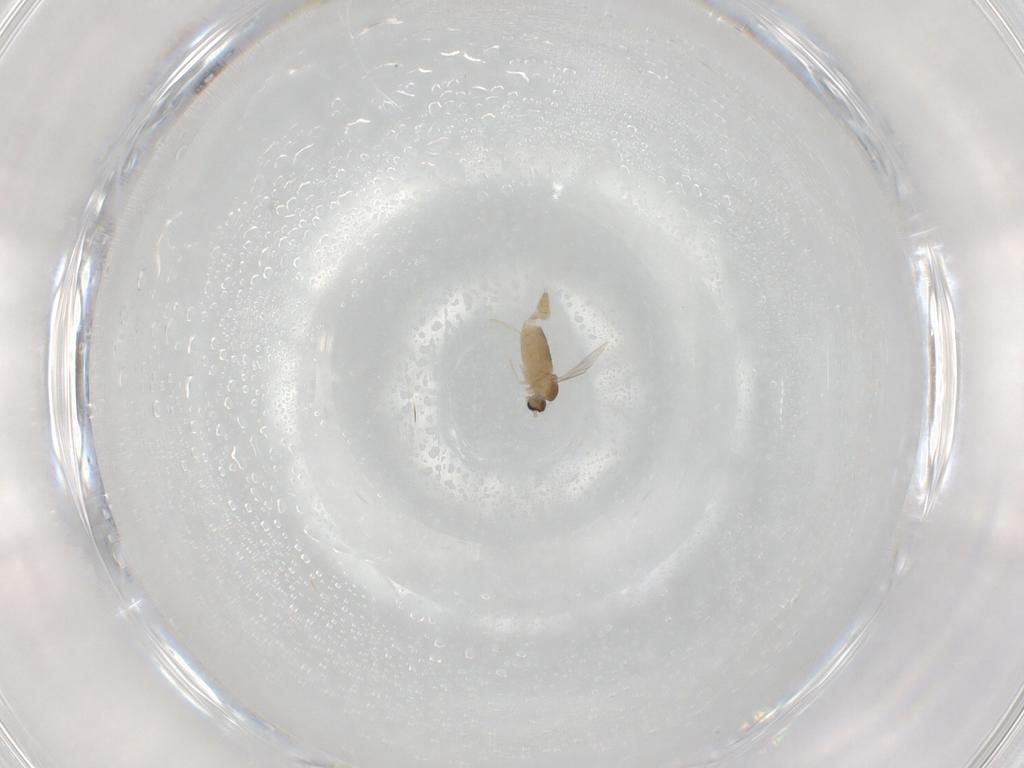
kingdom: Animalia
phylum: Arthropoda
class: Insecta
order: Diptera
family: Cecidomyiidae
